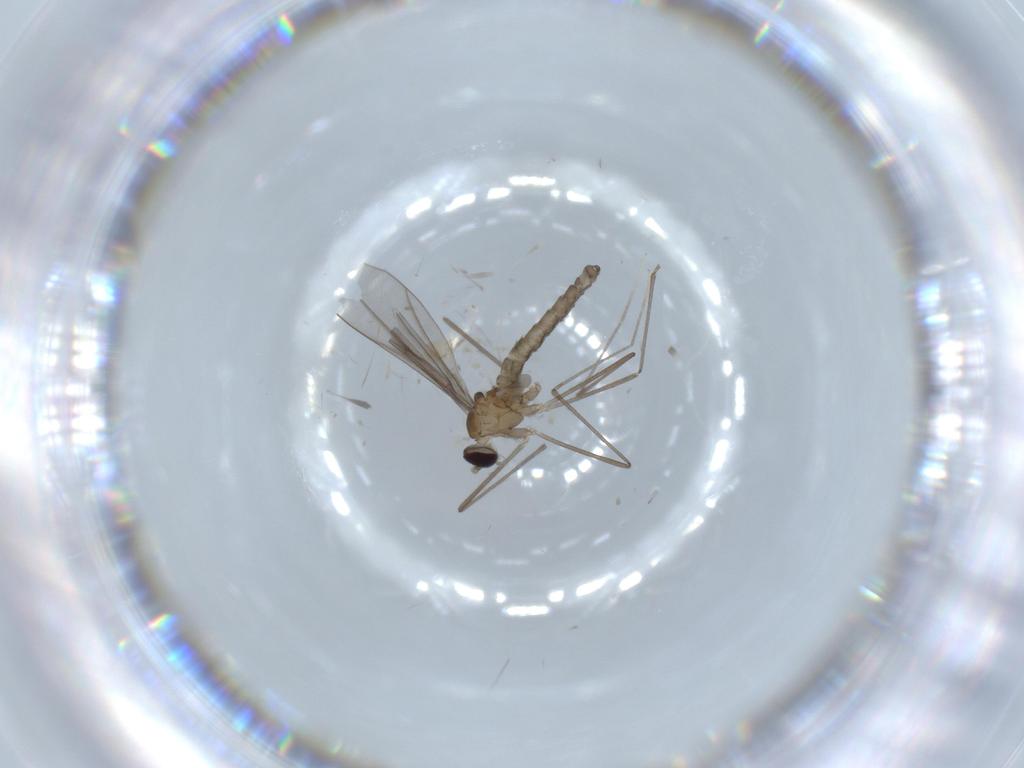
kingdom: Animalia
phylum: Arthropoda
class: Insecta
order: Diptera
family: Cecidomyiidae
